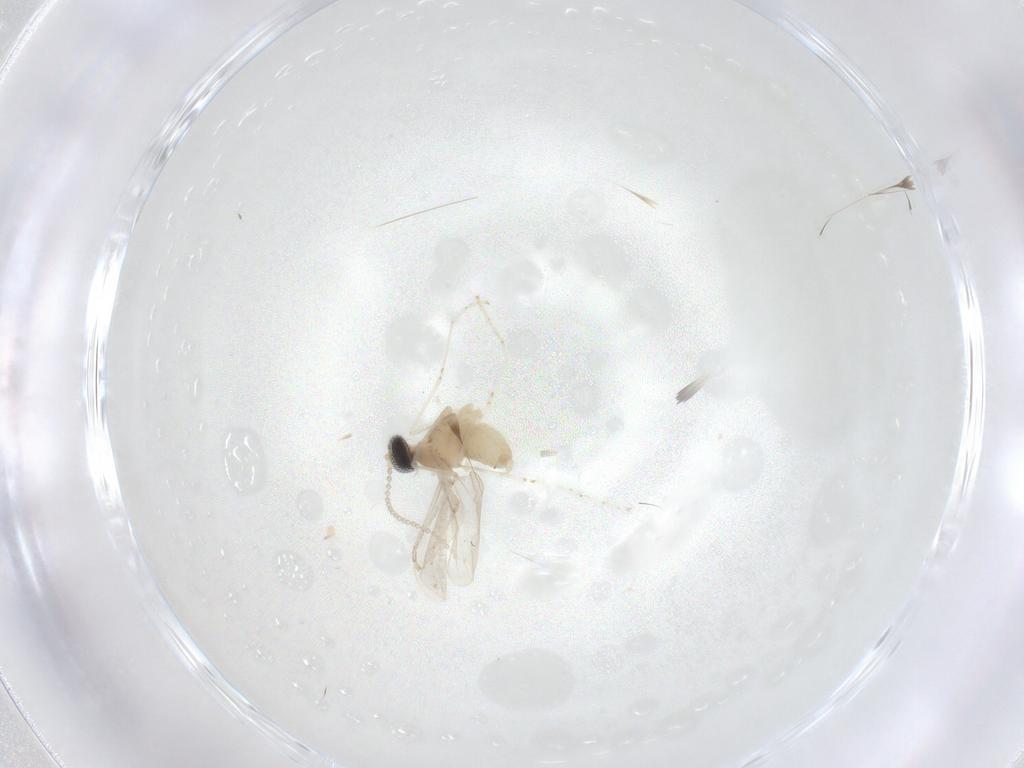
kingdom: Animalia
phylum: Arthropoda
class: Insecta
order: Diptera
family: Cecidomyiidae
